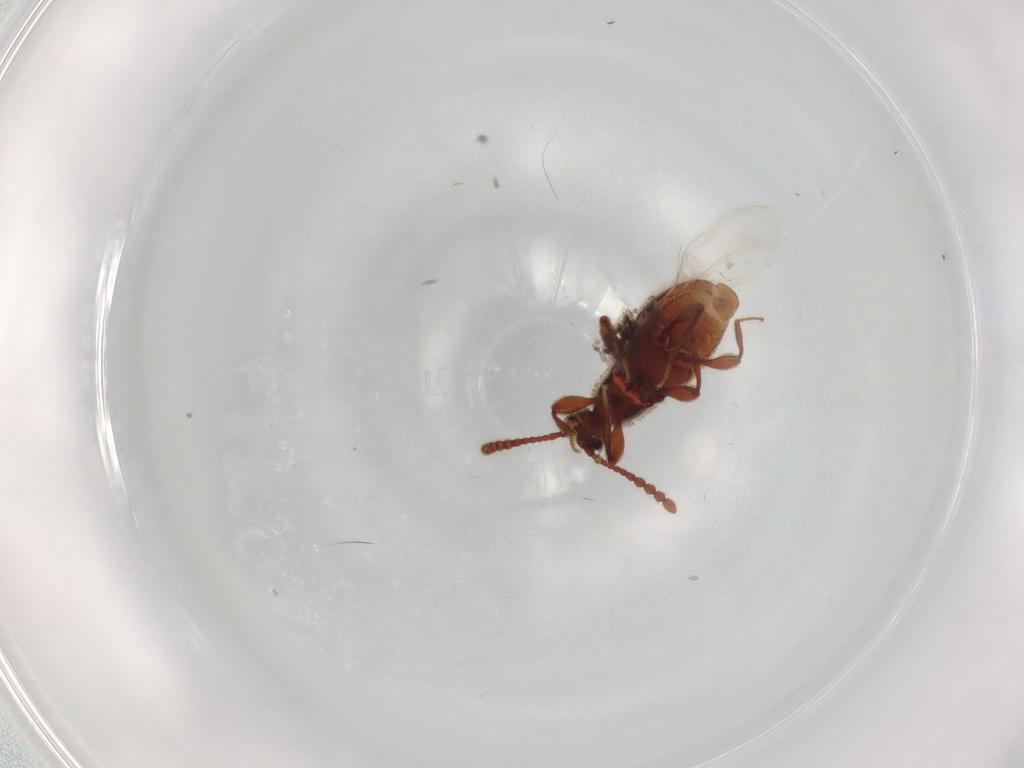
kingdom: Animalia
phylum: Arthropoda
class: Insecta
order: Coleoptera
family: Staphylinidae
